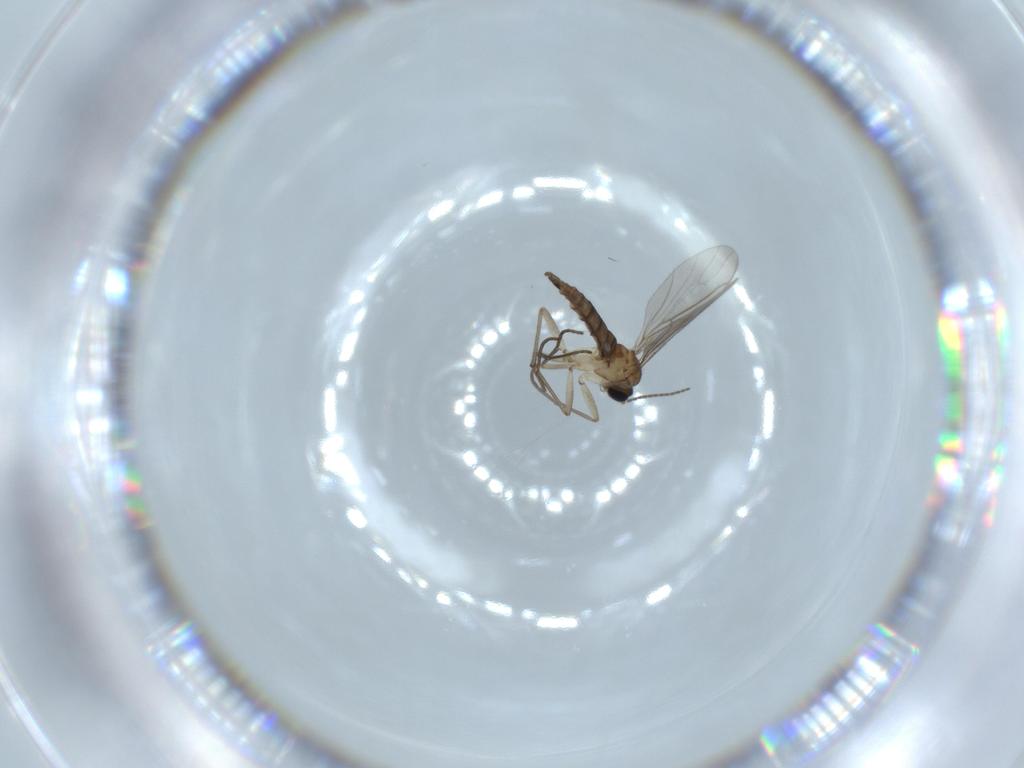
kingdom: Animalia
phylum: Arthropoda
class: Insecta
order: Diptera
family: Sciaridae
